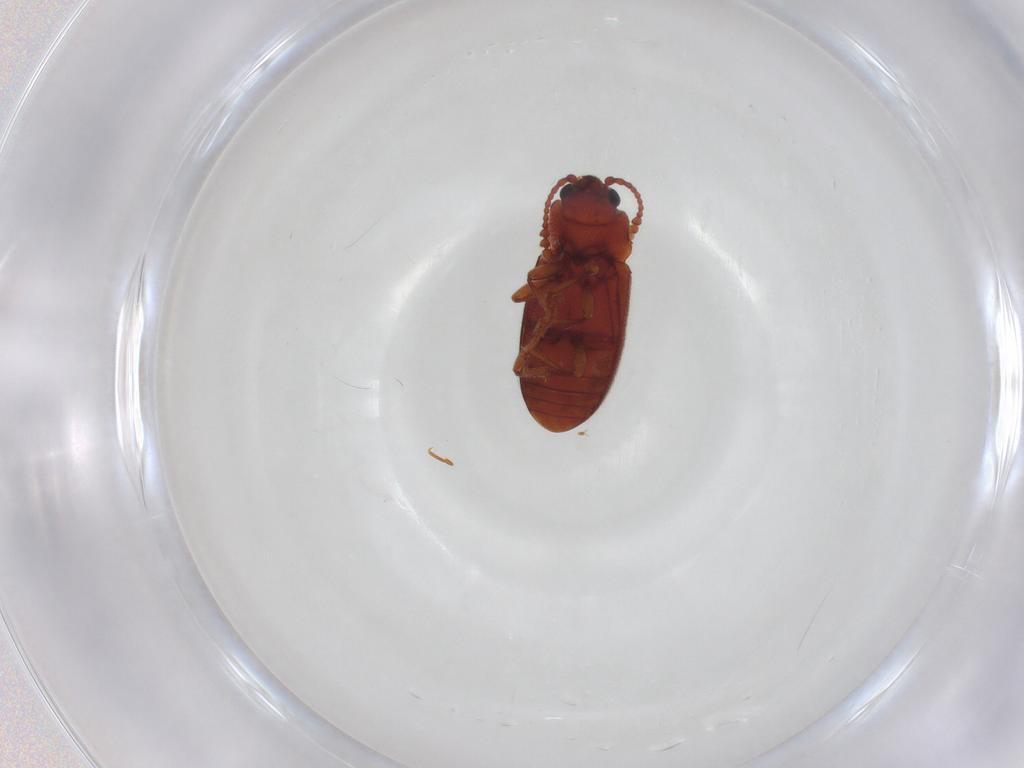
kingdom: Animalia
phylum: Arthropoda
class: Insecta
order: Coleoptera
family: Cryptophagidae
